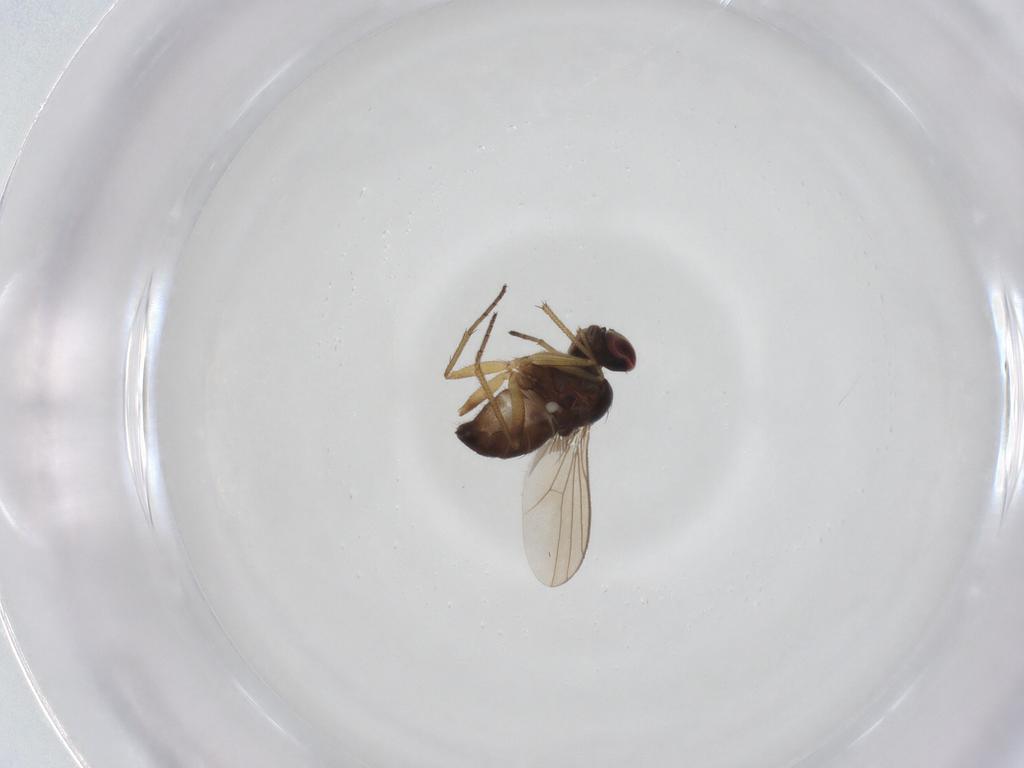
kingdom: Animalia
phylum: Arthropoda
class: Insecta
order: Diptera
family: Dolichopodidae
